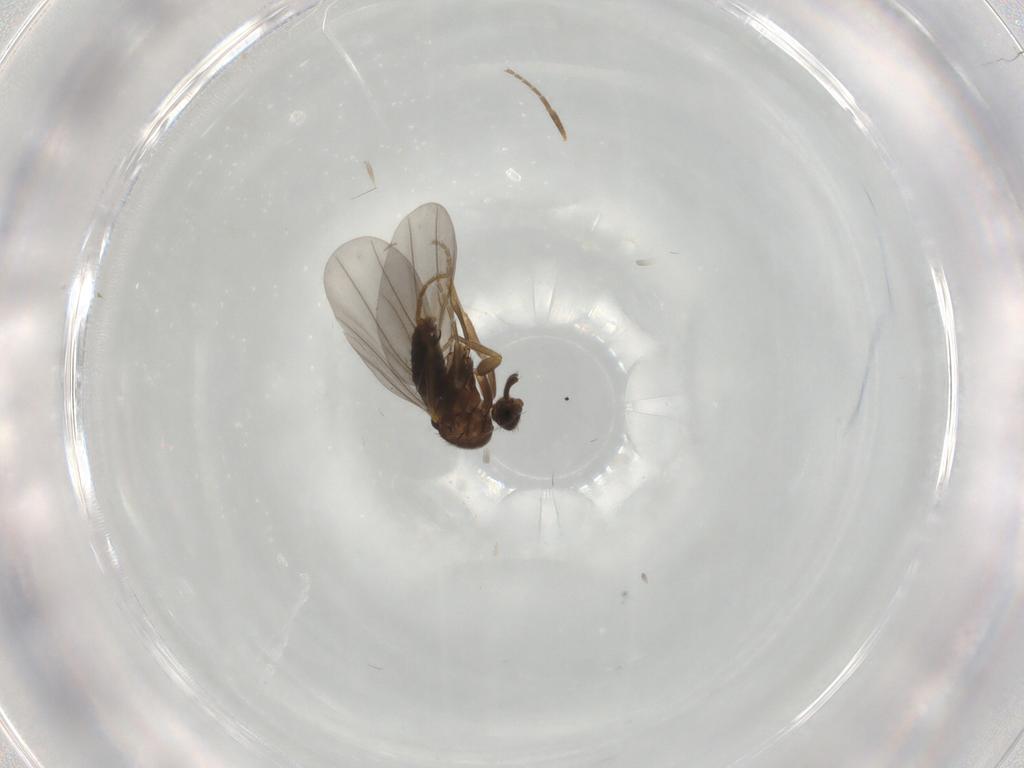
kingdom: Animalia
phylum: Arthropoda
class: Insecta
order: Diptera
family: Phoridae
